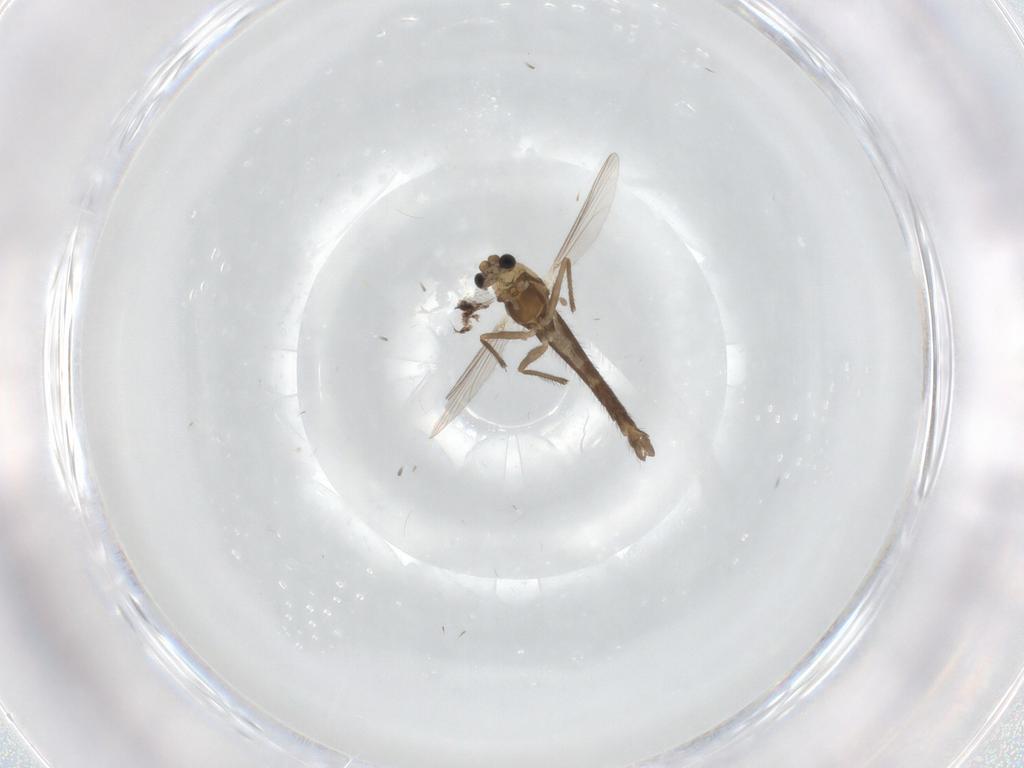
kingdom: Animalia
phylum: Arthropoda
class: Insecta
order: Diptera
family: Chironomidae
